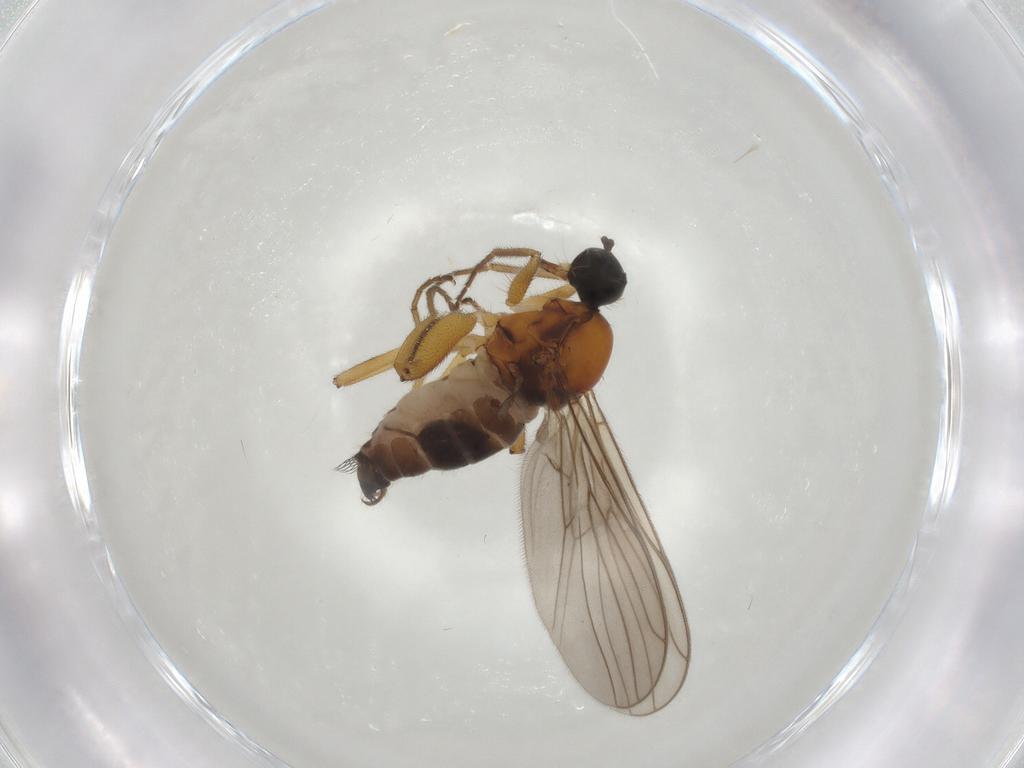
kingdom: Animalia
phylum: Arthropoda
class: Insecta
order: Diptera
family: Hybotidae
